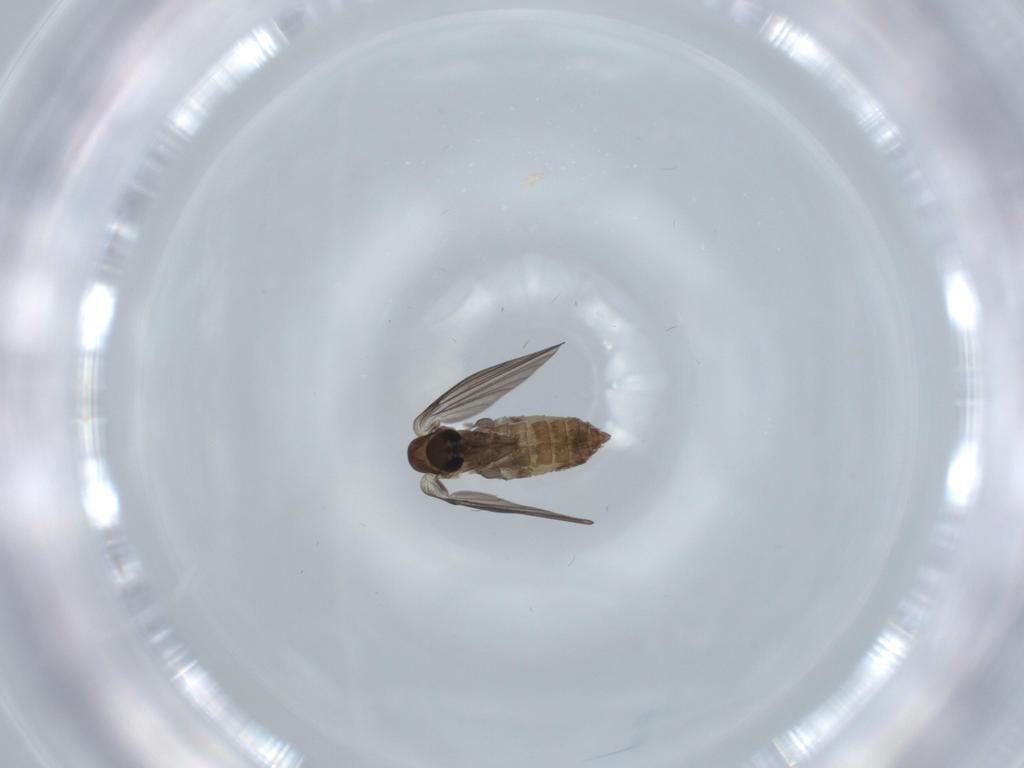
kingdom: Animalia
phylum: Arthropoda
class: Insecta
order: Diptera
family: Psychodidae
